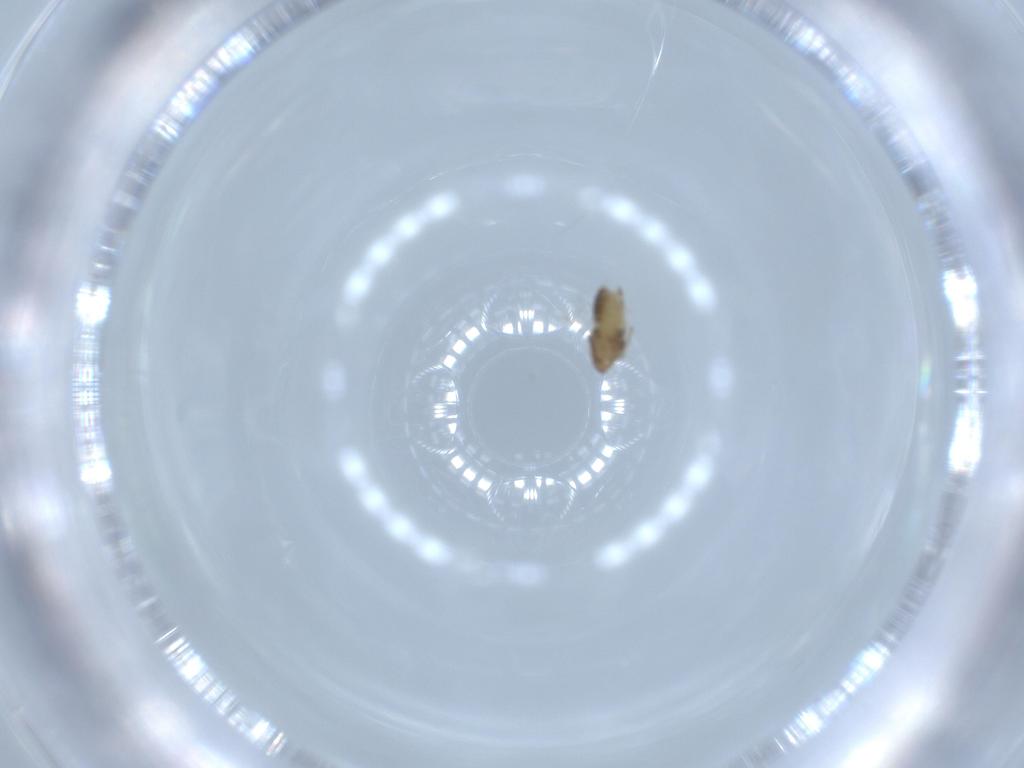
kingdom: Animalia
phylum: Arthropoda
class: Insecta
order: Diptera
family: Chironomidae
